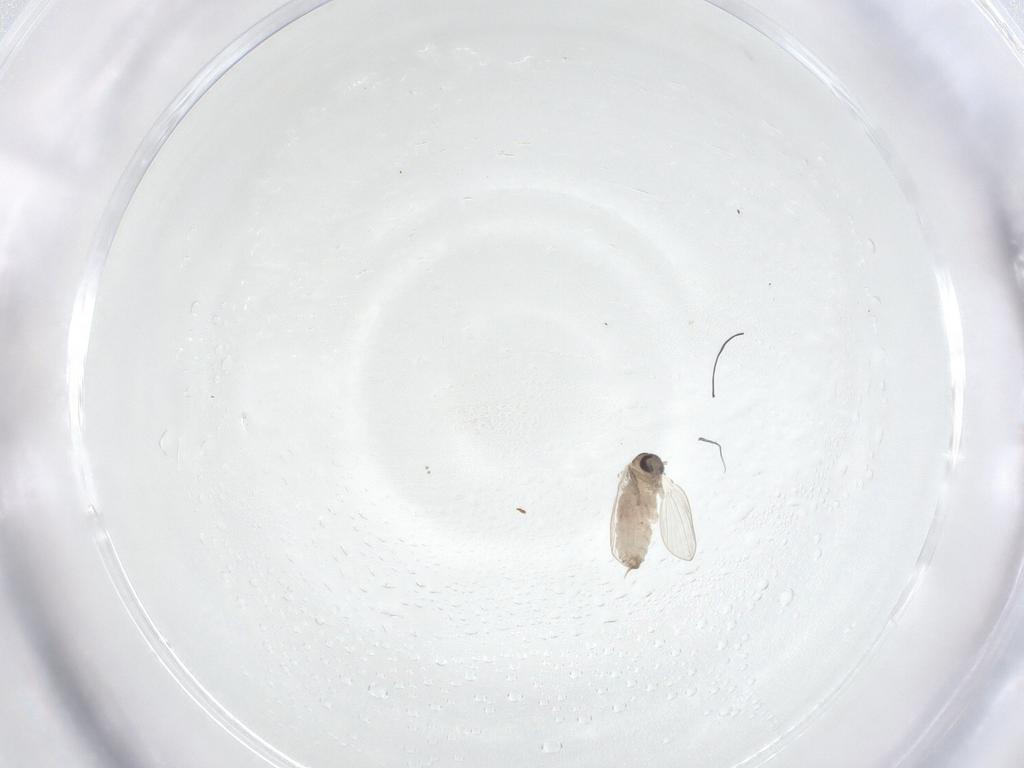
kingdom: Animalia
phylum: Arthropoda
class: Insecta
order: Diptera
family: Psychodidae
